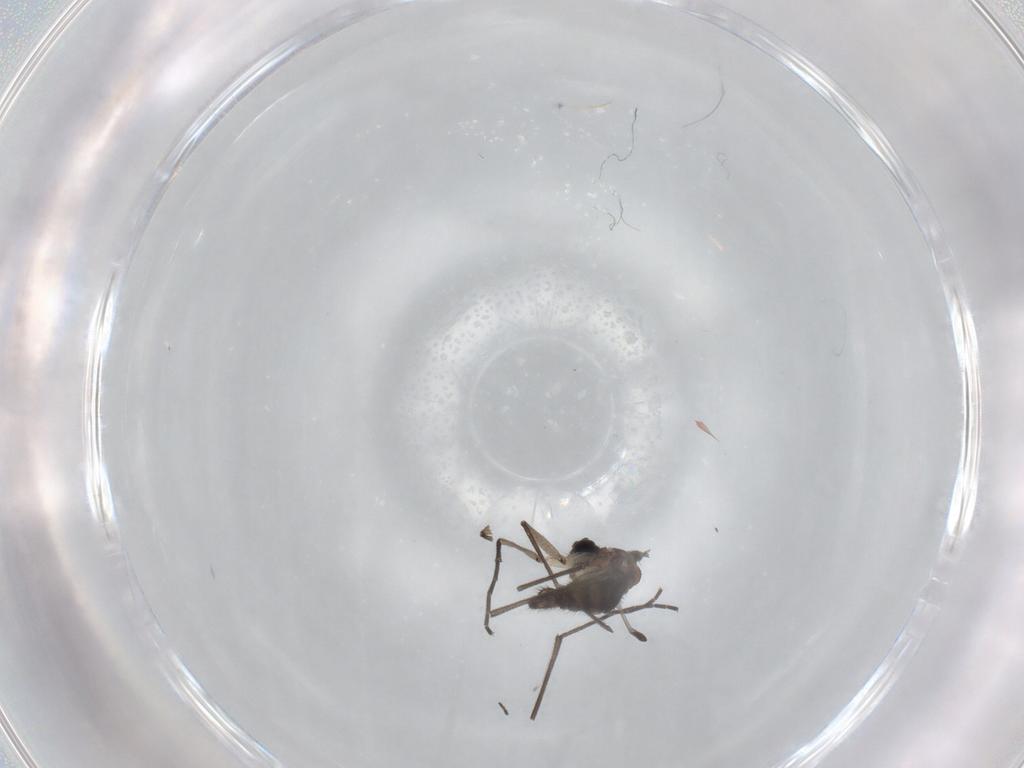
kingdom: Animalia
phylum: Arthropoda
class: Insecta
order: Diptera
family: Sciaridae
